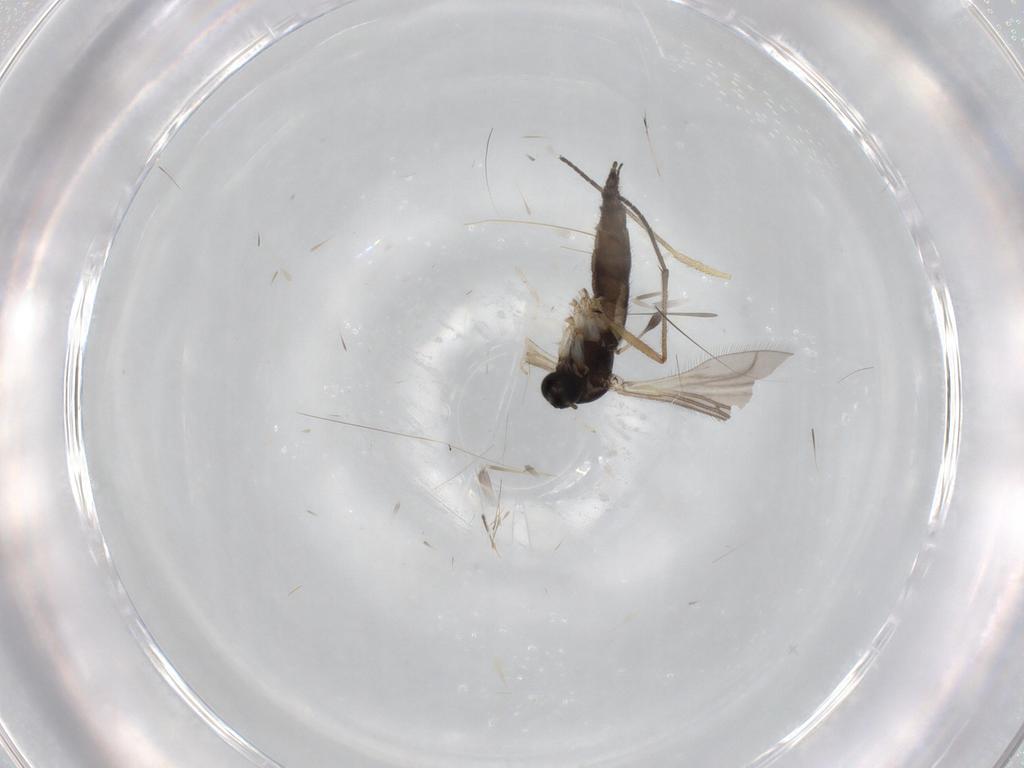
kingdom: Animalia
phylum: Arthropoda
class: Insecta
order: Diptera
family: Sciaridae
